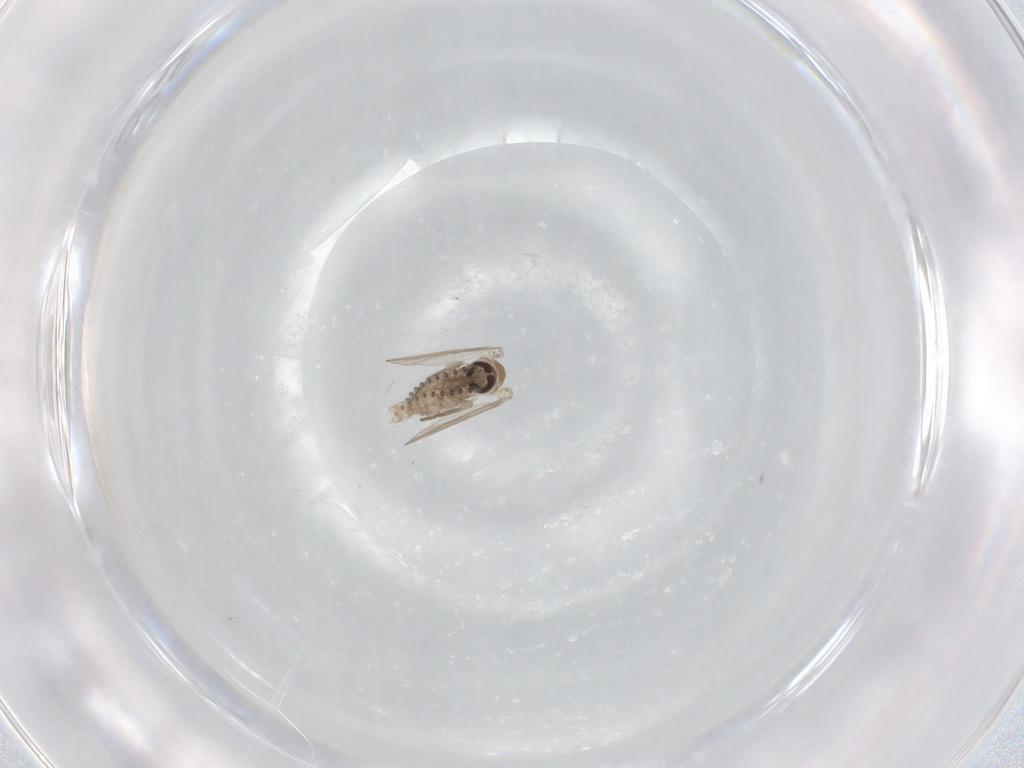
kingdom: Animalia
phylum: Arthropoda
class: Insecta
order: Diptera
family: Psychodidae
